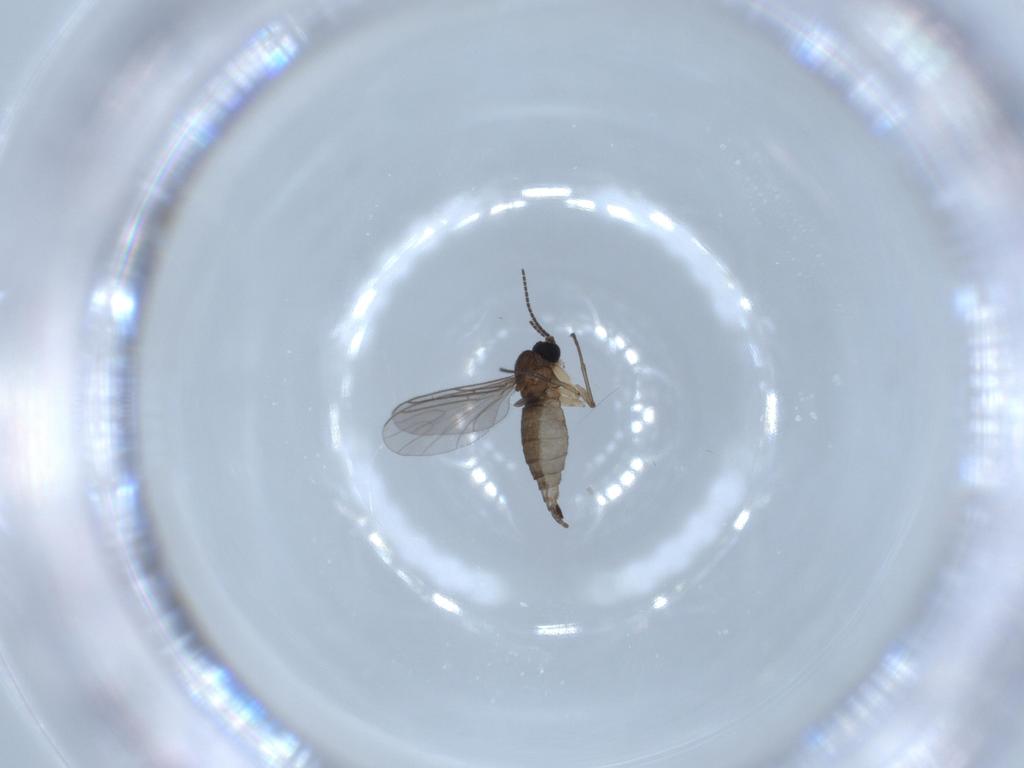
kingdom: Animalia
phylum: Arthropoda
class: Insecta
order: Diptera
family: Sciaridae
